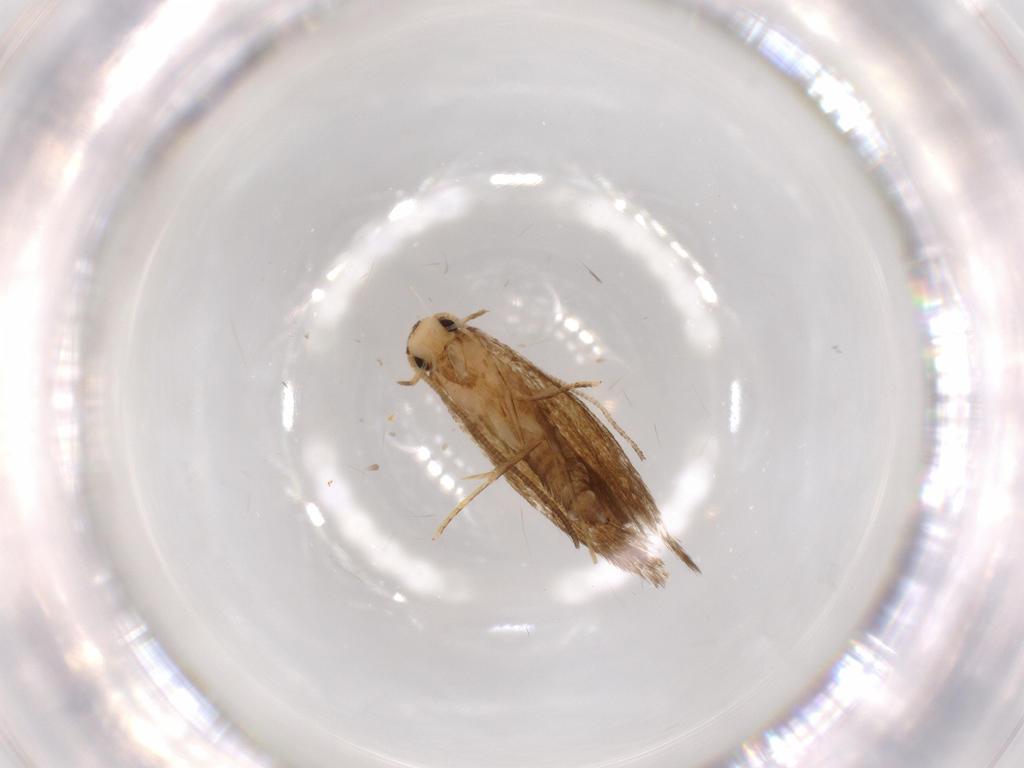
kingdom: Animalia
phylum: Arthropoda
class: Insecta
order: Lepidoptera
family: Tineidae
